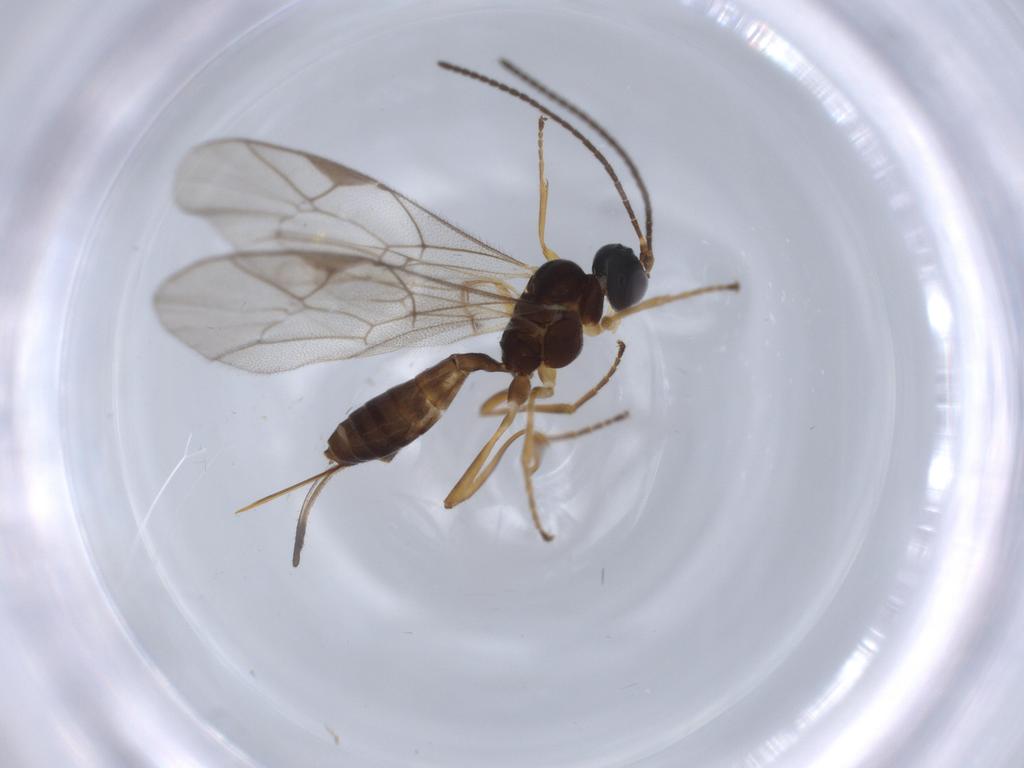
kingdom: Animalia
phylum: Arthropoda
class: Insecta
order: Hymenoptera
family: Ichneumonidae
